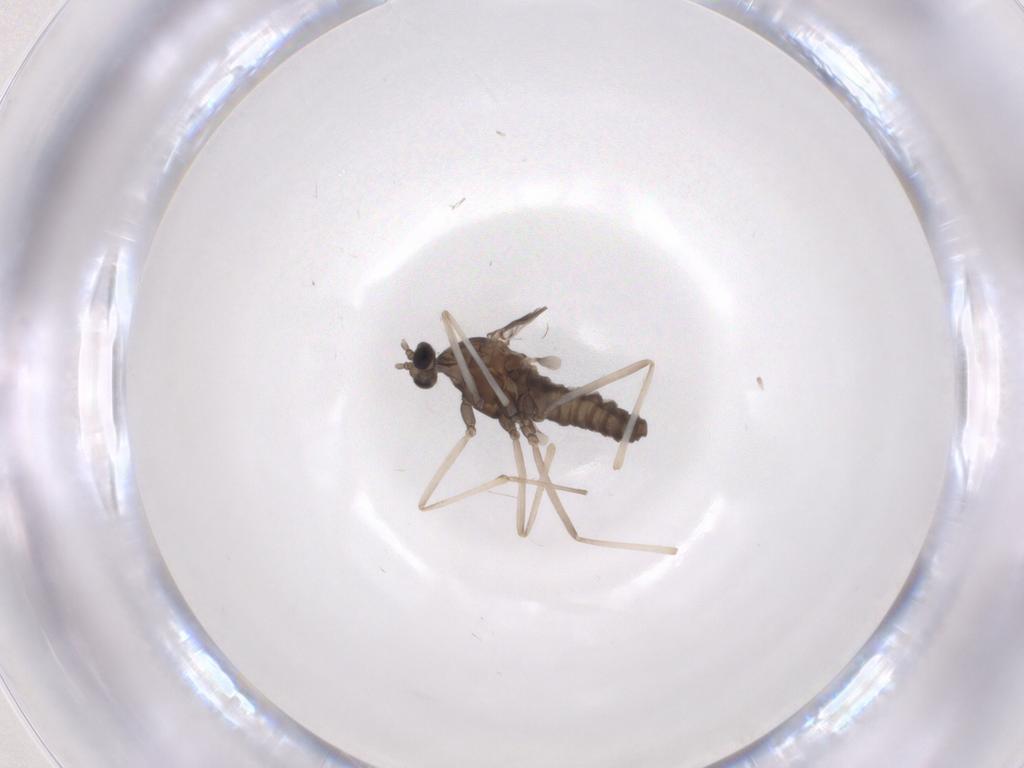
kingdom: Animalia
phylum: Arthropoda
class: Insecta
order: Diptera
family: Sciaridae
